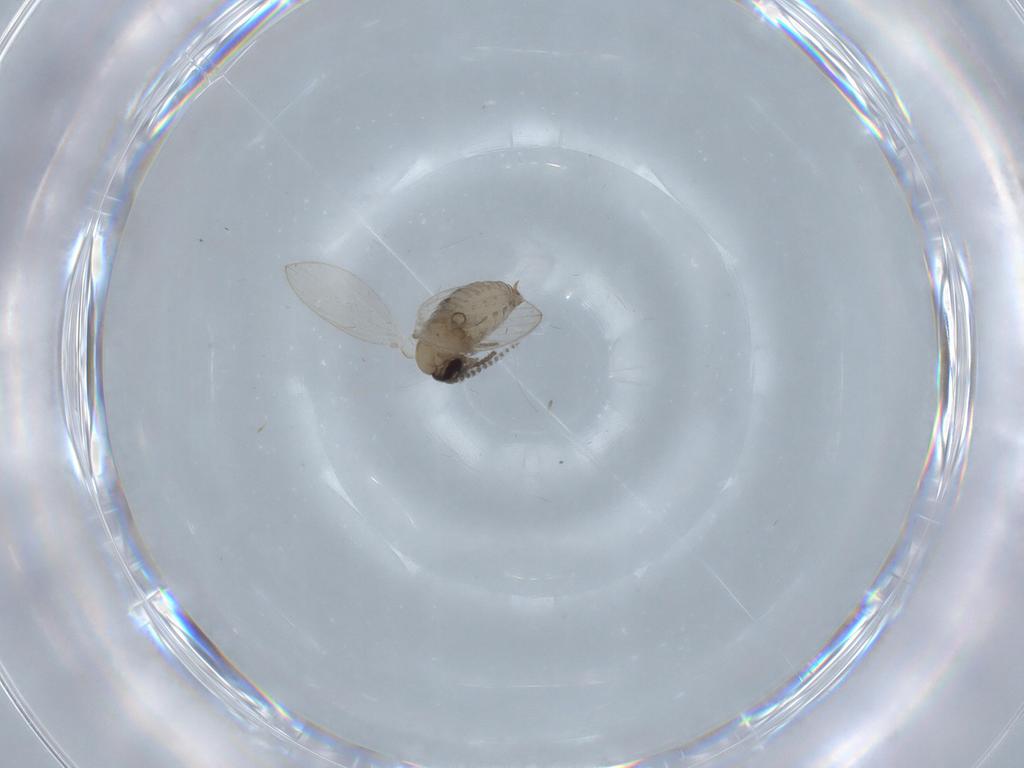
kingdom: Animalia
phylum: Arthropoda
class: Insecta
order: Diptera
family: Psychodidae
